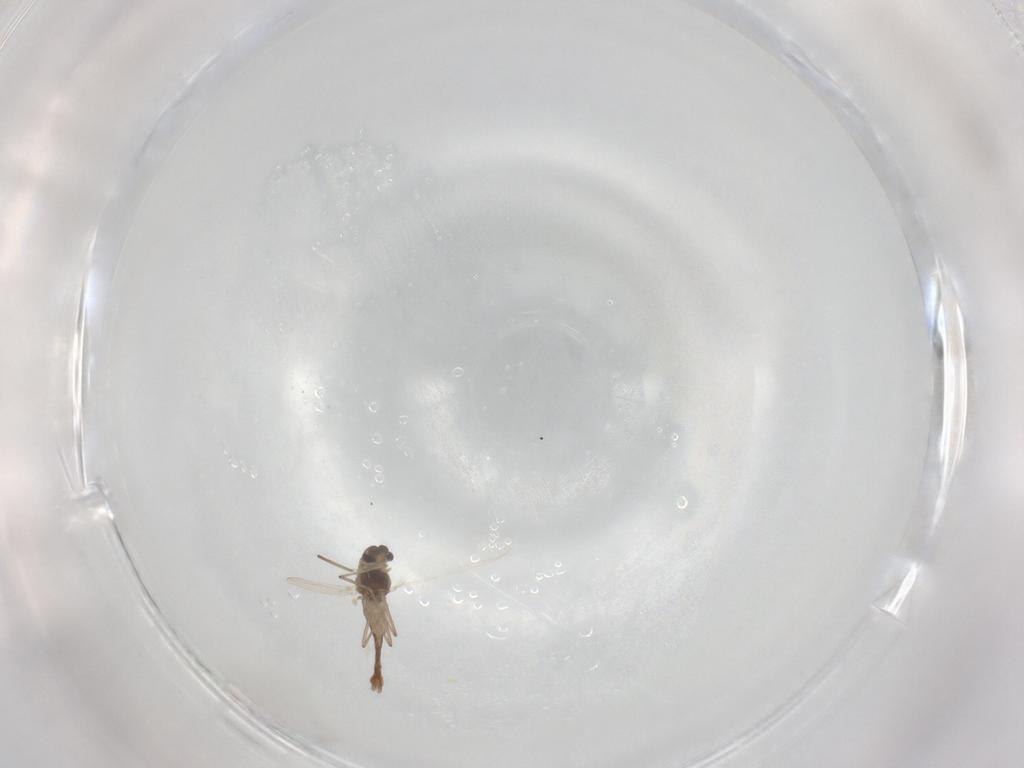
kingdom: Animalia
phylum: Arthropoda
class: Insecta
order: Diptera
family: Chironomidae
